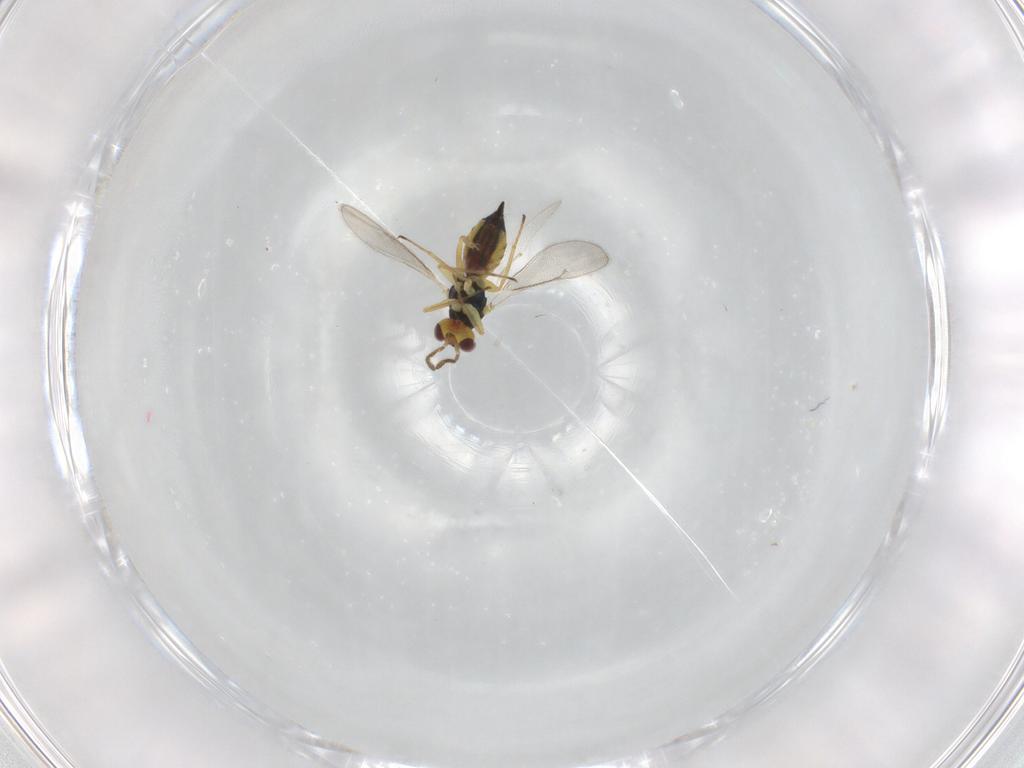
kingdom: Animalia
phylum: Arthropoda
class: Insecta
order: Hymenoptera
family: Eulophidae
